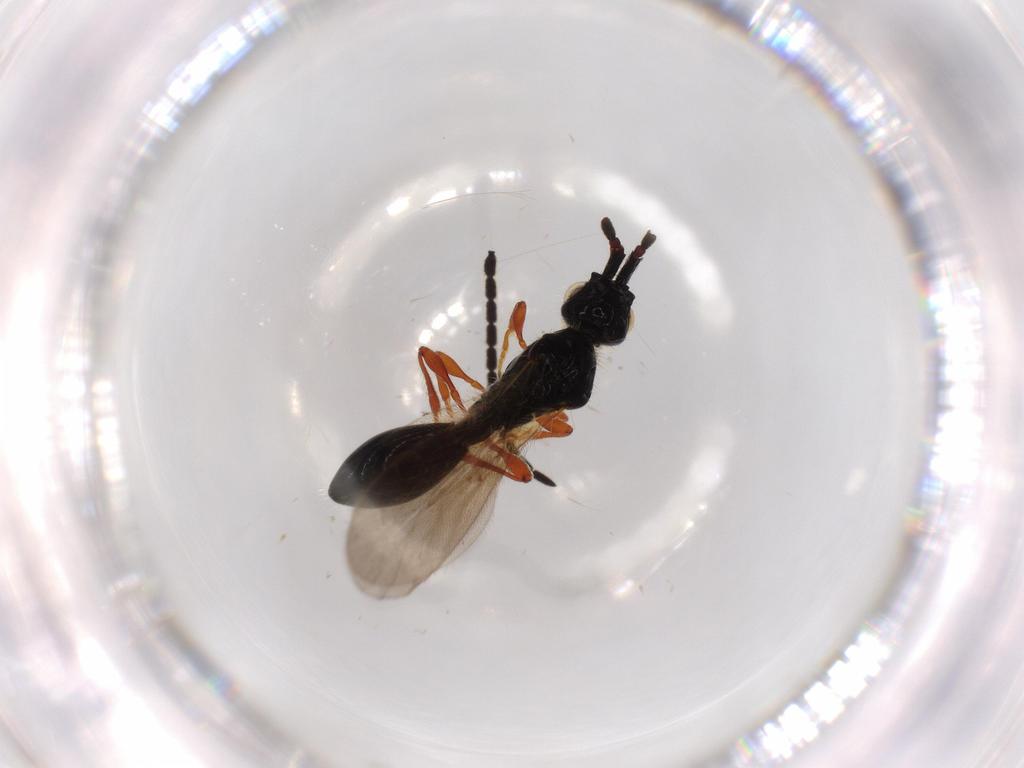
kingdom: Animalia
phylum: Arthropoda
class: Insecta
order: Hymenoptera
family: Diapriidae
